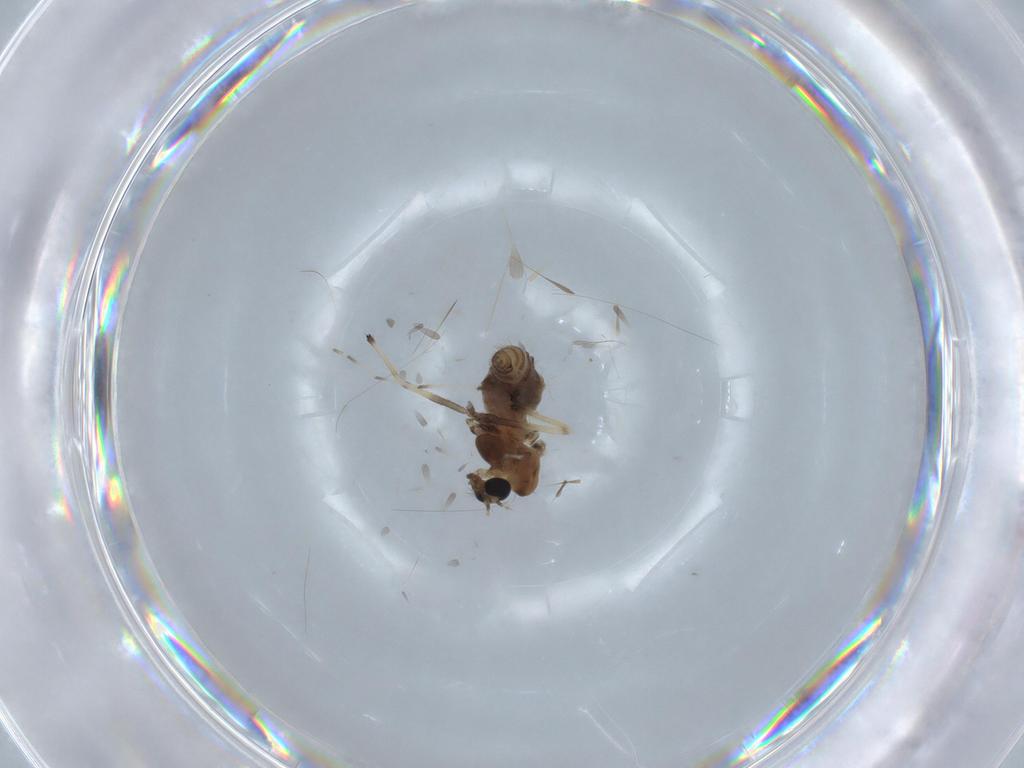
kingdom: Animalia
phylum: Arthropoda
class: Insecta
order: Diptera
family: Chironomidae
